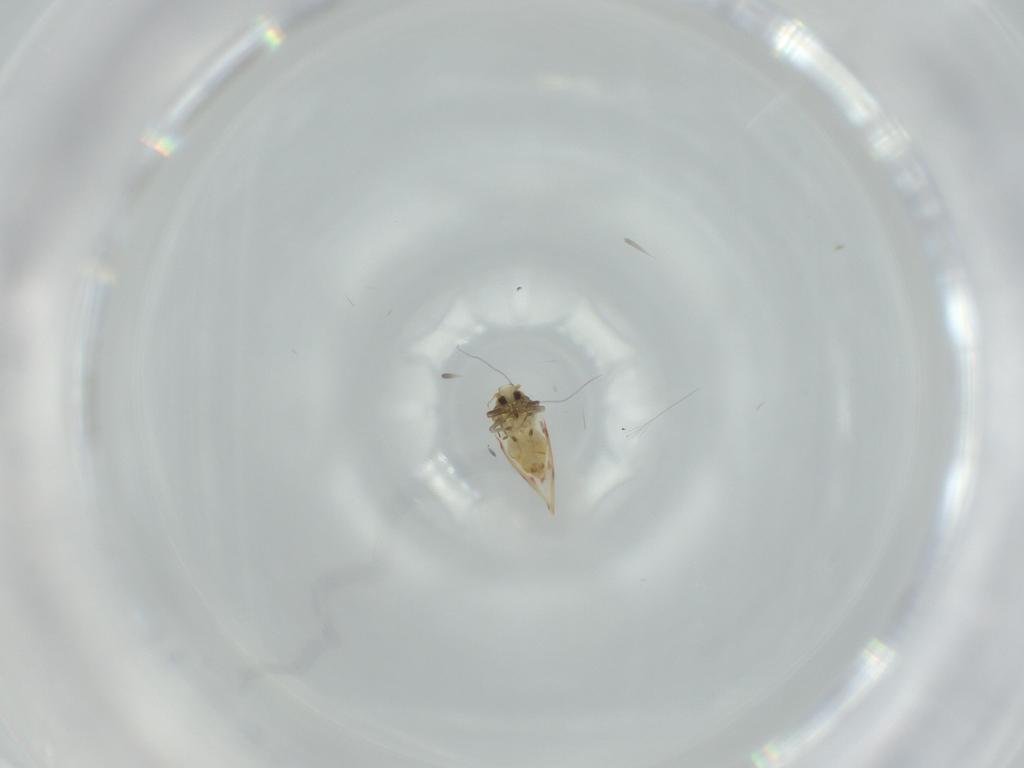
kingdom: Animalia
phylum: Arthropoda
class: Insecta
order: Hemiptera
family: Aleyrodidae
